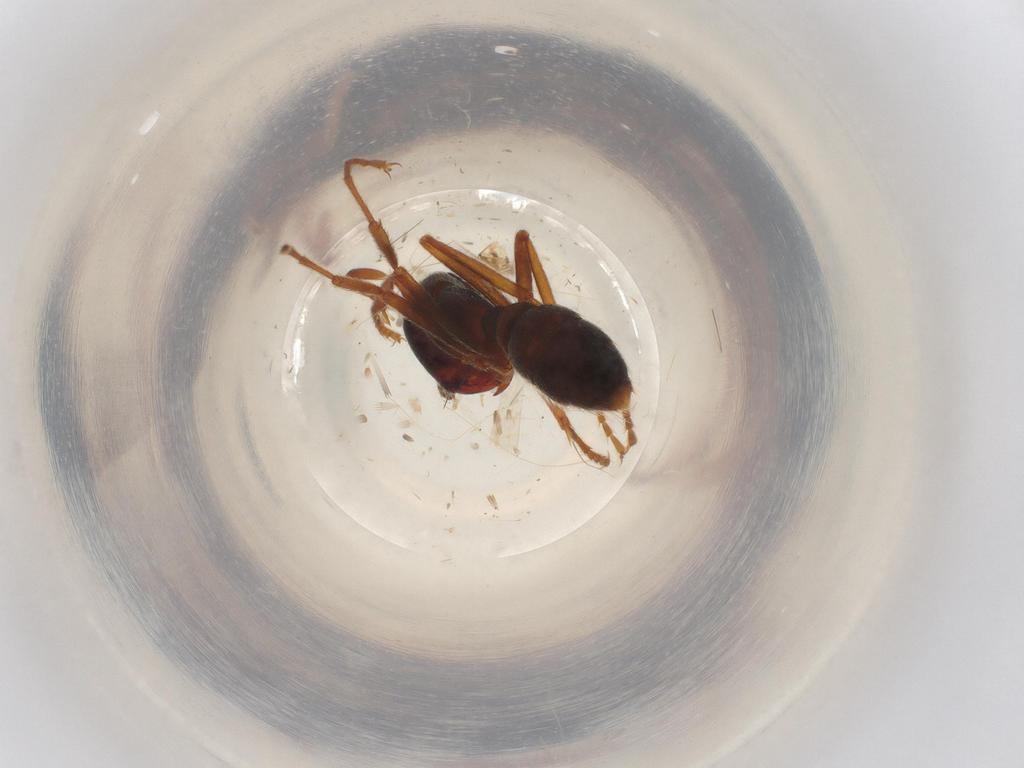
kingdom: Animalia
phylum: Arthropoda
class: Insecta
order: Hymenoptera
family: Formicidae
